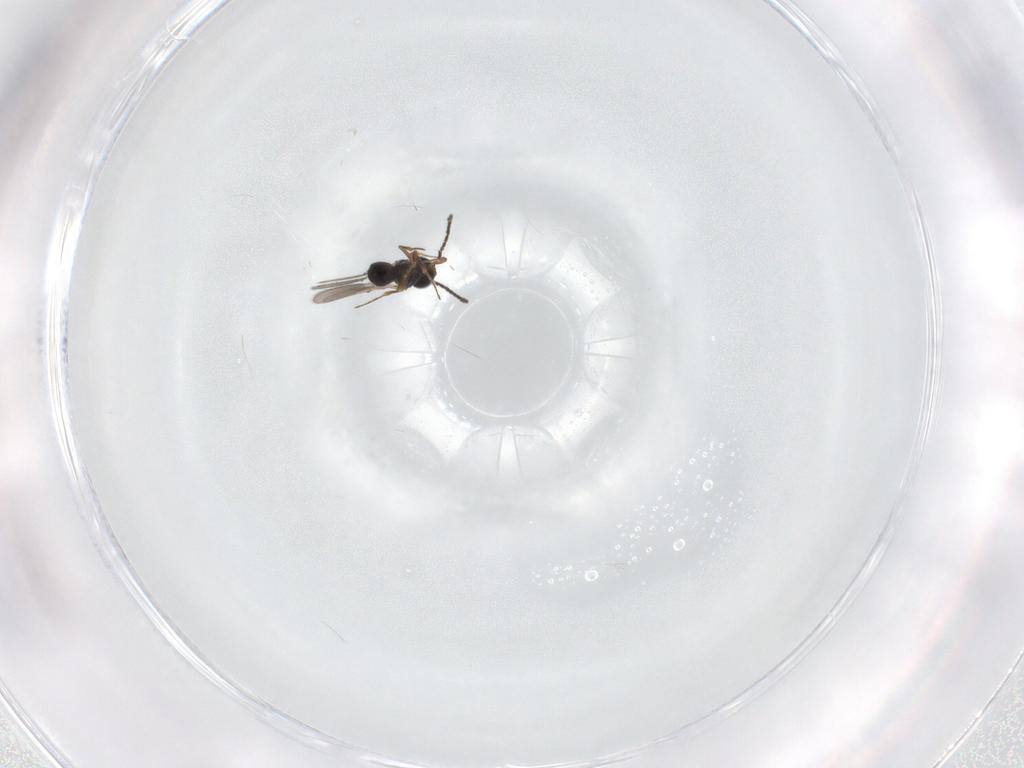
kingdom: Animalia
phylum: Arthropoda
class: Insecta
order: Hymenoptera
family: Scelionidae
